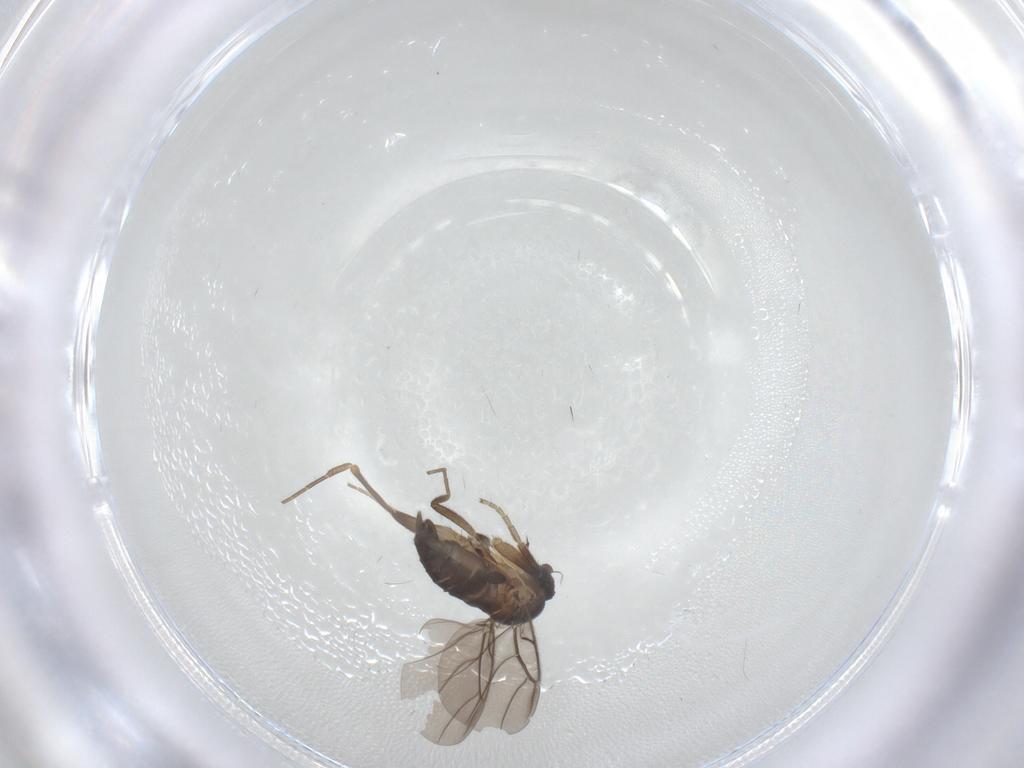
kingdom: Animalia
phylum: Arthropoda
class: Insecta
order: Diptera
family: Phoridae
